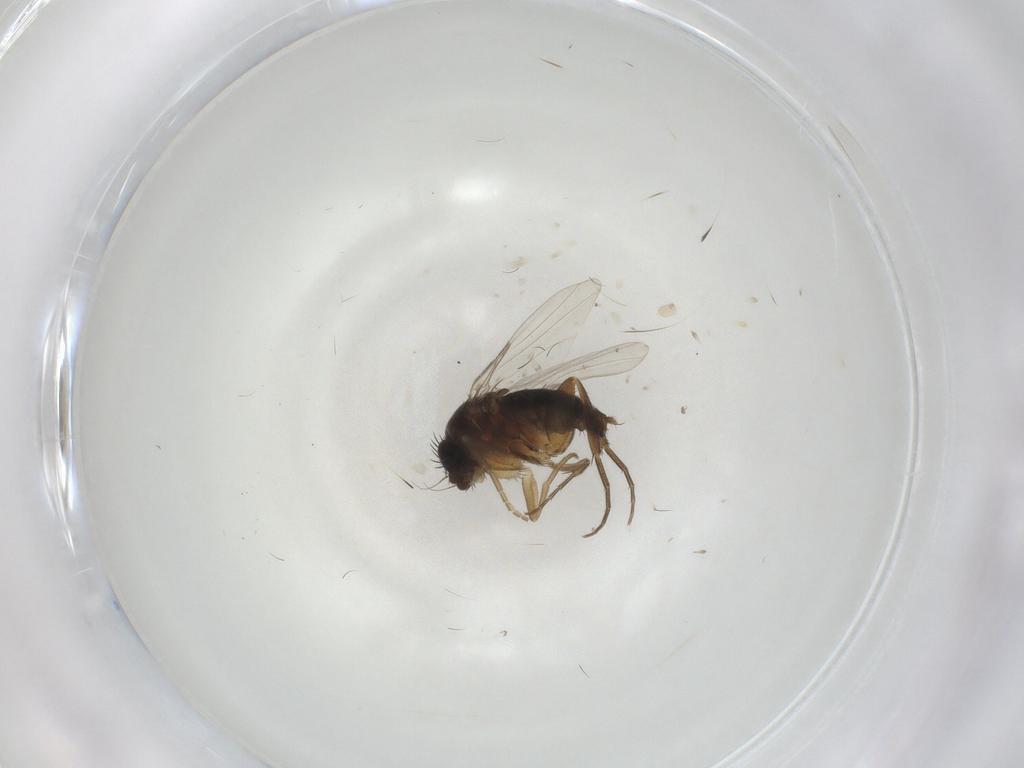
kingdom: Animalia
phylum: Arthropoda
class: Insecta
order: Diptera
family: Phoridae
